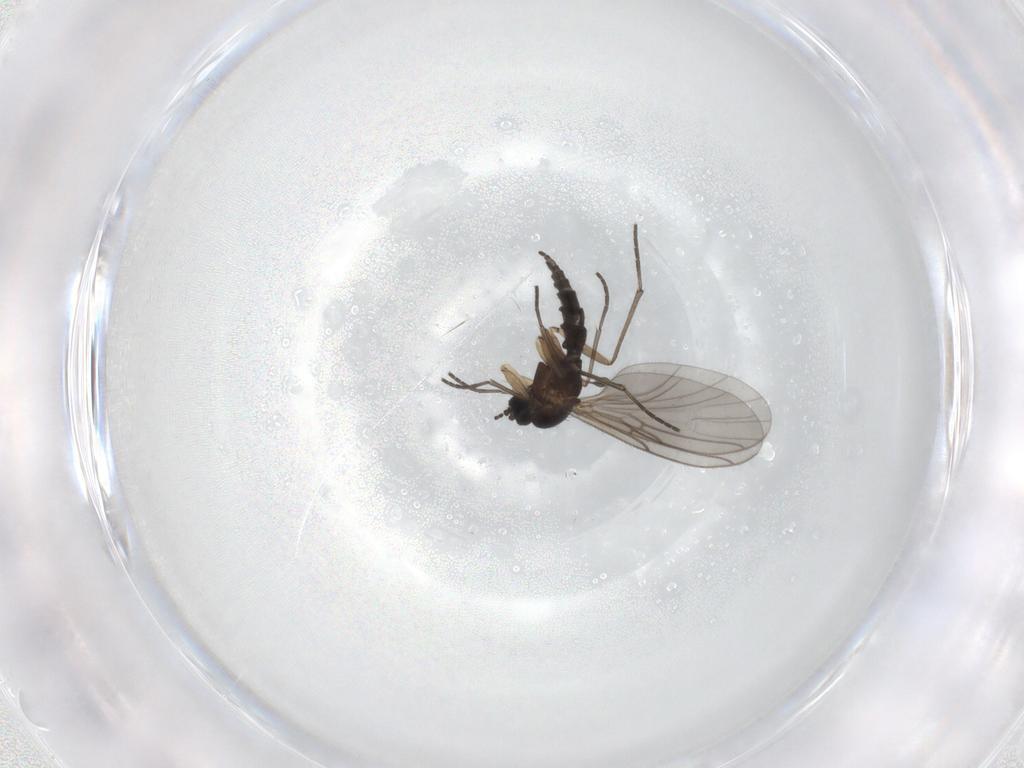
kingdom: Animalia
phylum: Arthropoda
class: Insecta
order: Diptera
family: Sciaridae
